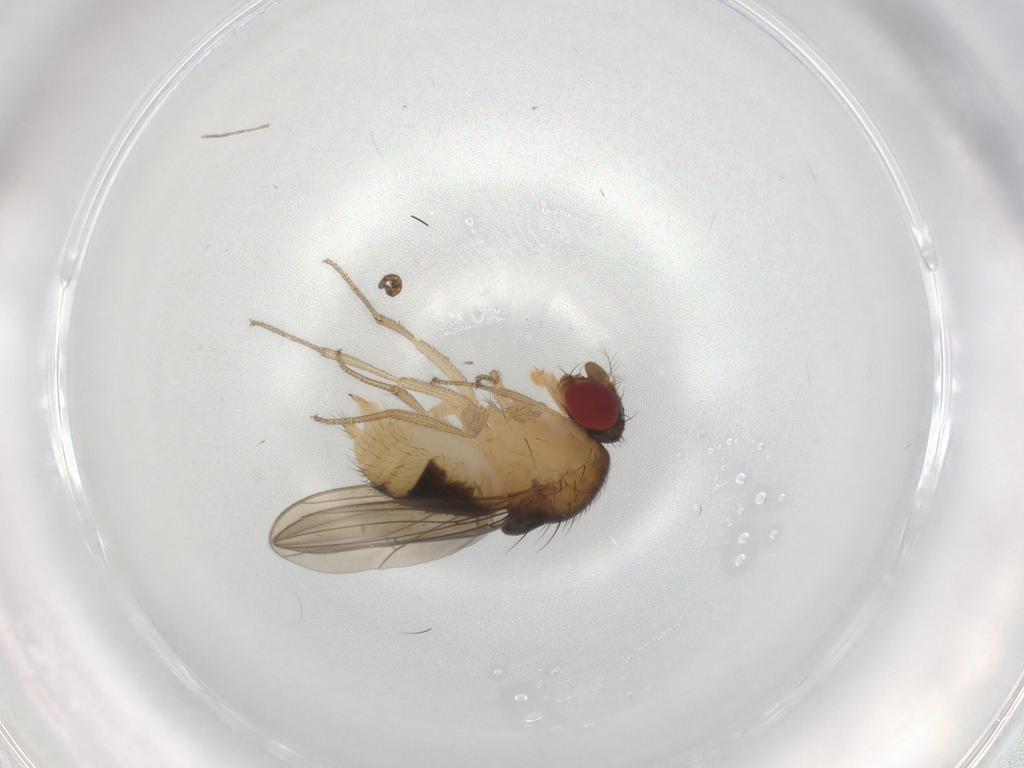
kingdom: Animalia
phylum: Arthropoda
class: Insecta
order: Diptera
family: Drosophilidae
